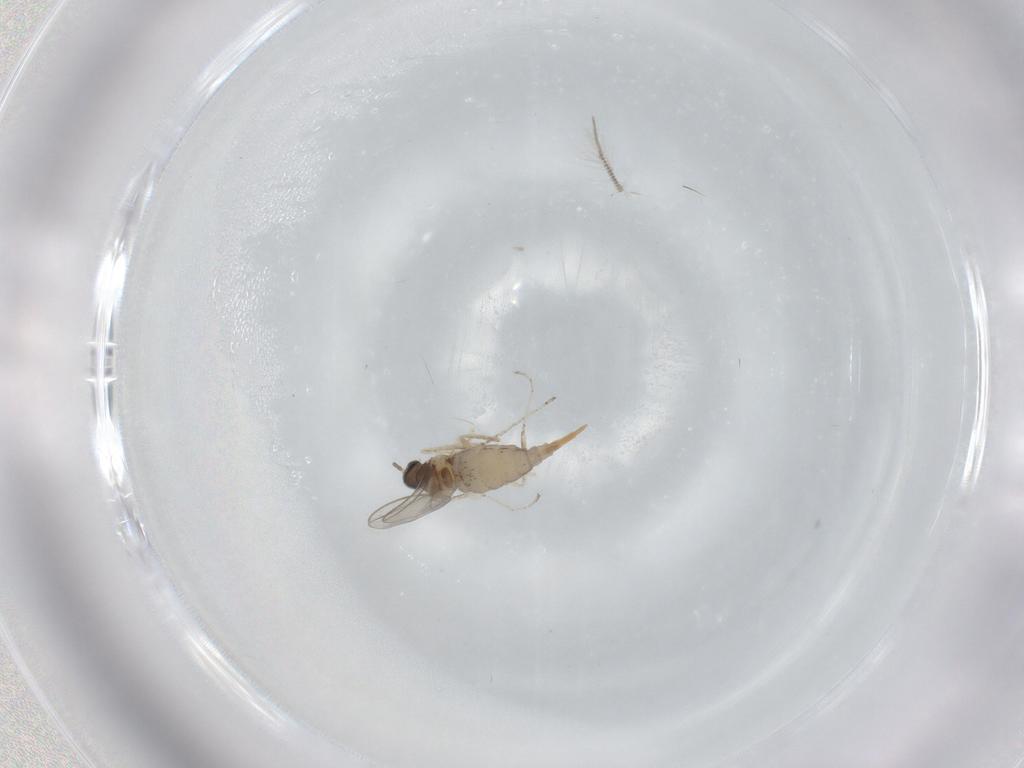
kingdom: Animalia
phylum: Arthropoda
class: Insecta
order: Diptera
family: Cecidomyiidae
